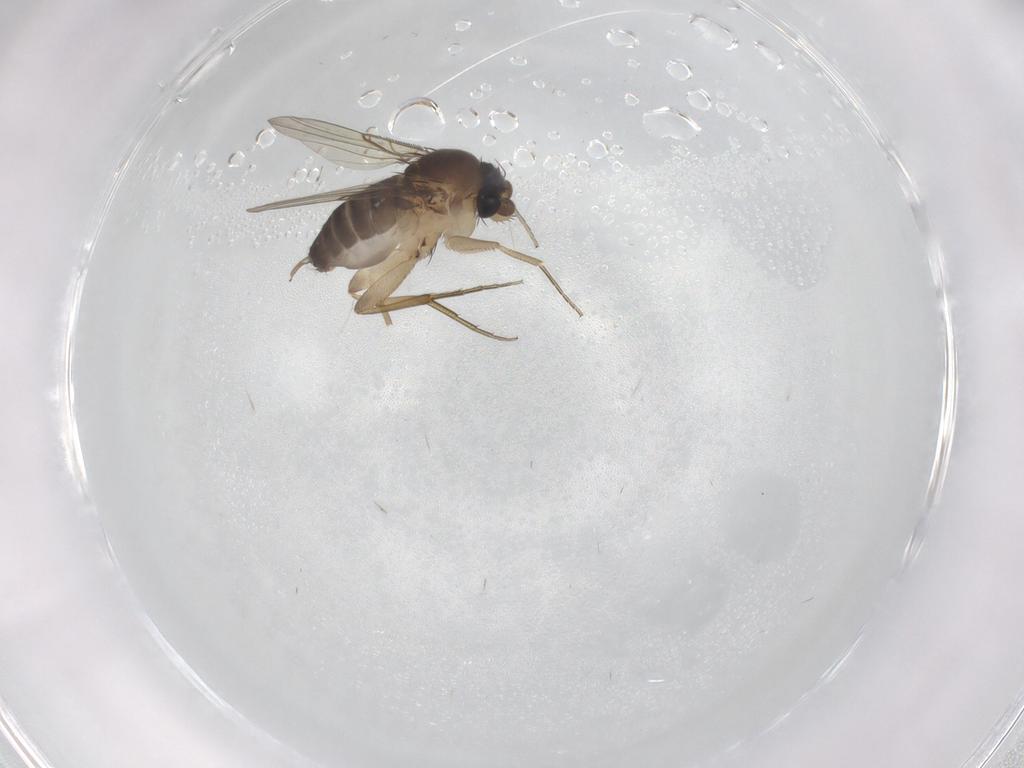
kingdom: Animalia
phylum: Arthropoda
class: Insecta
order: Diptera
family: Phoridae
